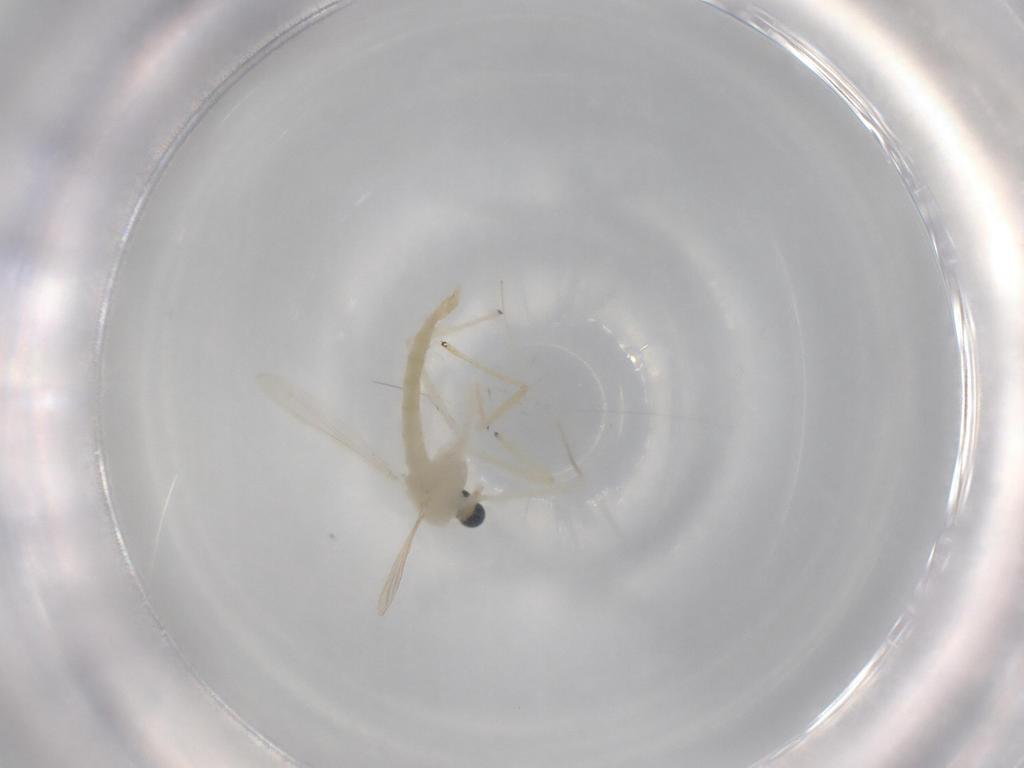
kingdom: Animalia
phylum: Arthropoda
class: Insecta
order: Diptera
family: Chironomidae
